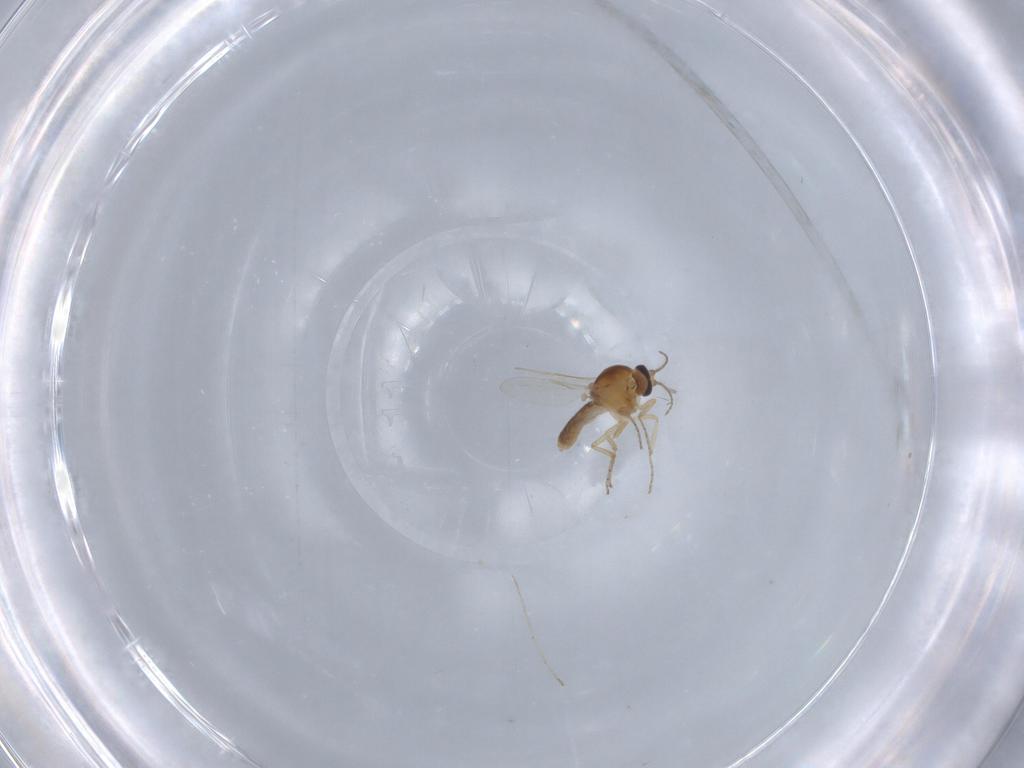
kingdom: Animalia
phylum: Arthropoda
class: Insecta
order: Diptera
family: Ceratopogonidae
